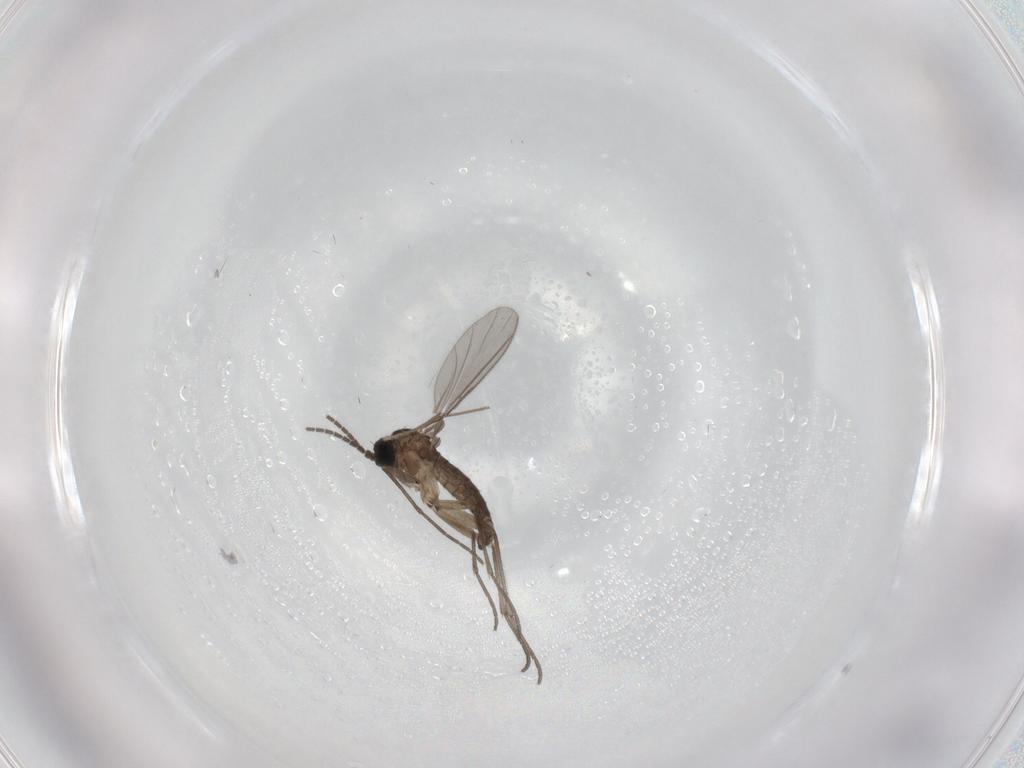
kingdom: Animalia
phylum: Arthropoda
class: Insecta
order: Diptera
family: Sciaridae
